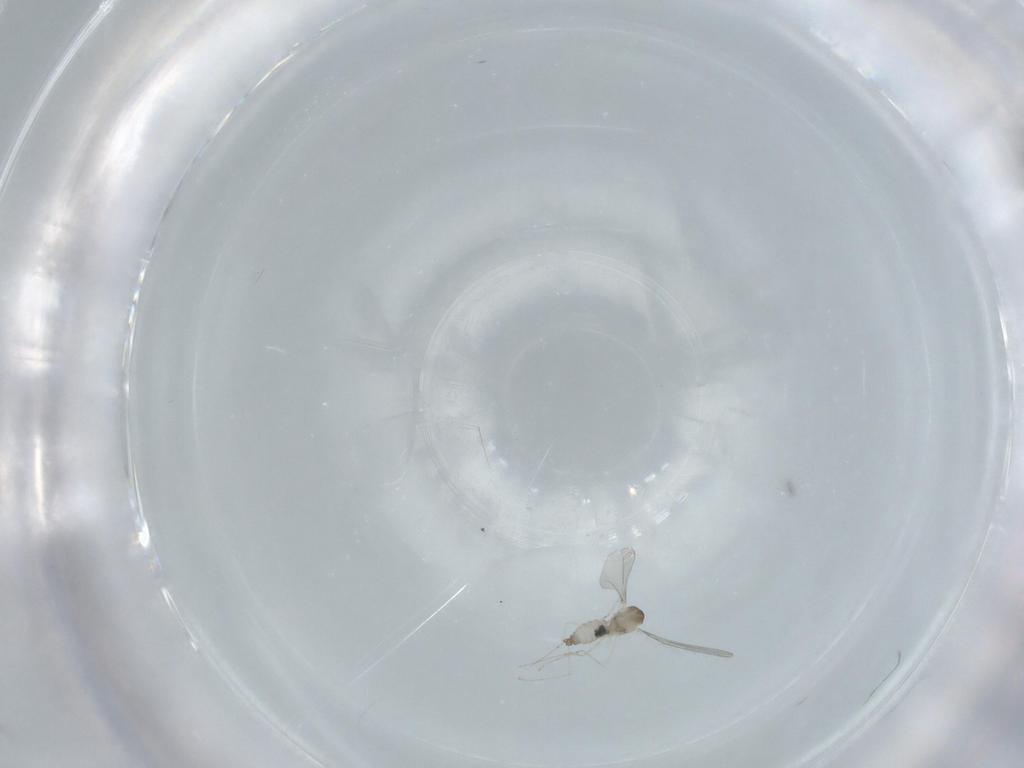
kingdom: Animalia
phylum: Arthropoda
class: Insecta
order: Diptera
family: Cecidomyiidae
